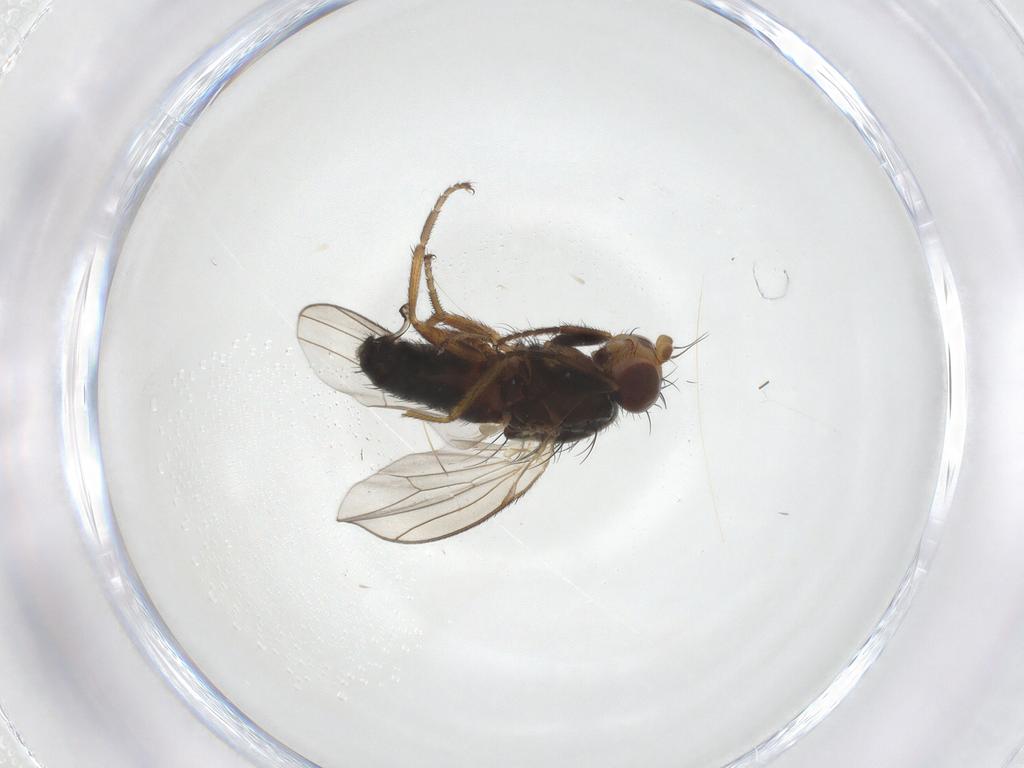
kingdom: Animalia
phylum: Arthropoda
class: Insecta
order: Diptera
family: Heleomyzidae
